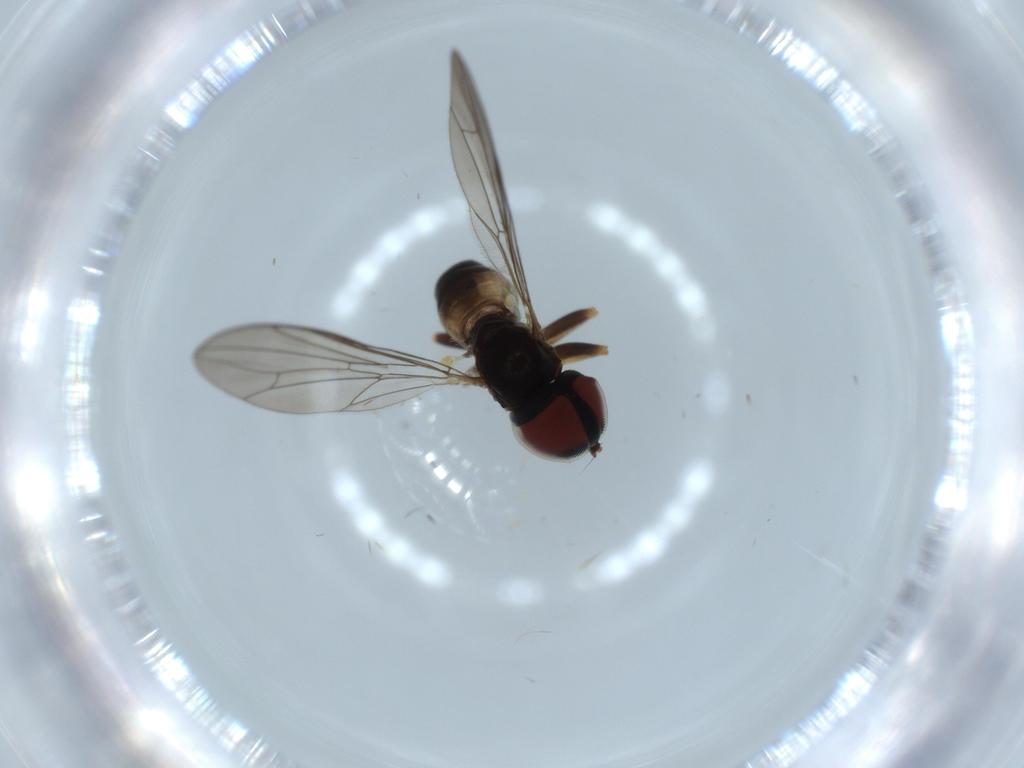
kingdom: Animalia
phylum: Arthropoda
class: Insecta
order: Diptera
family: Pipunculidae
